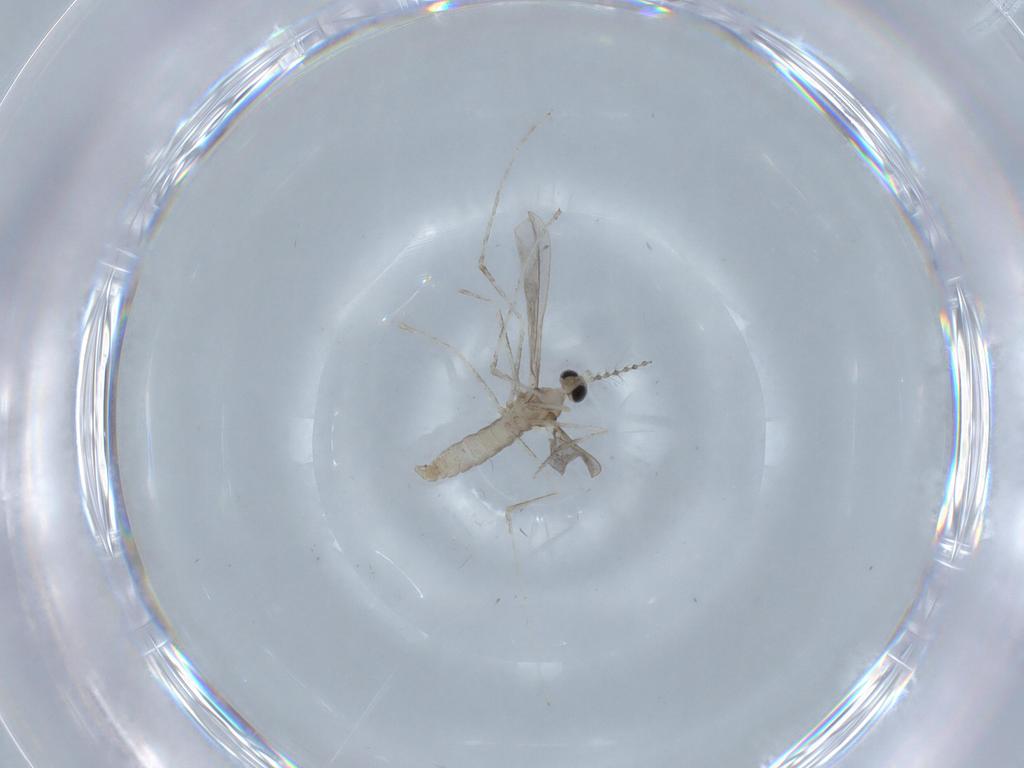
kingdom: Animalia
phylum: Arthropoda
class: Insecta
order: Diptera
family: Cecidomyiidae
